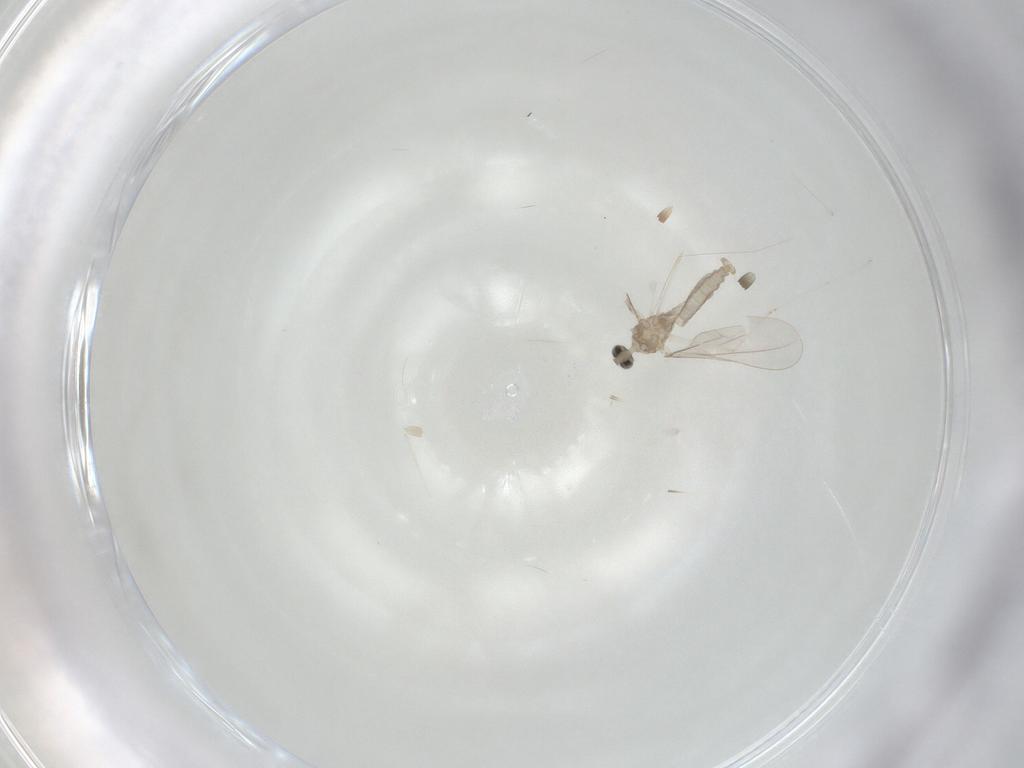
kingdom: Animalia
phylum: Arthropoda
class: Insecta
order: Diptera
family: Cecidomyiidae
